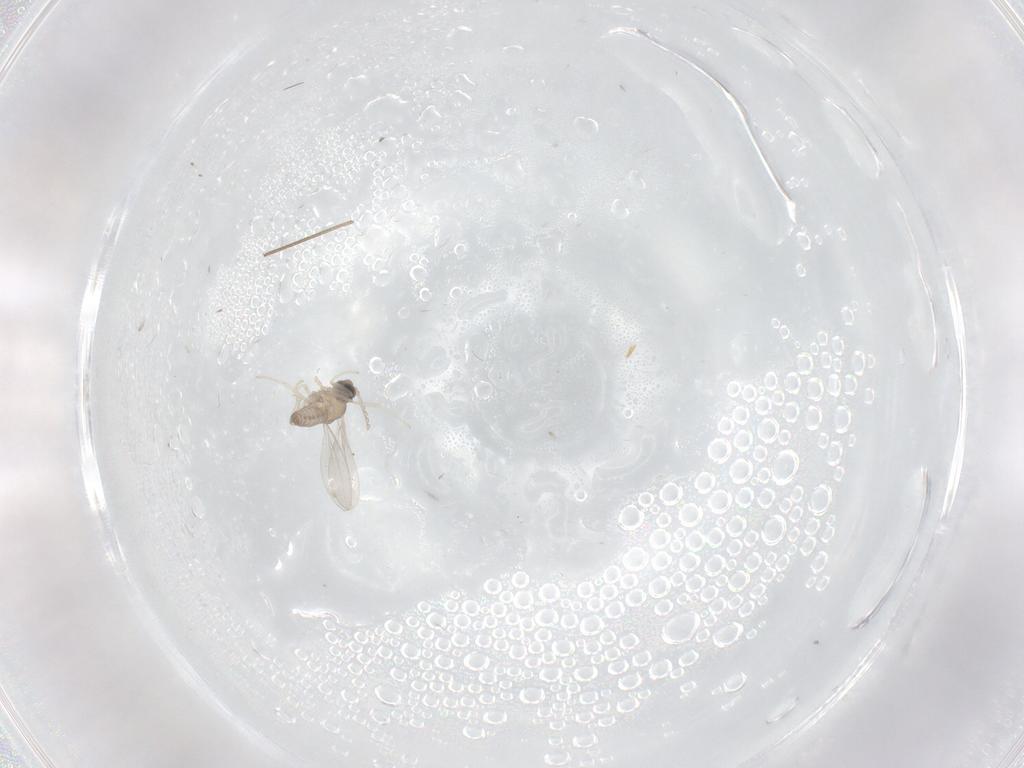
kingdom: Animalia
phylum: Arthropoda
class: Insecta
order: Diptera
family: Cecidomyiidae
